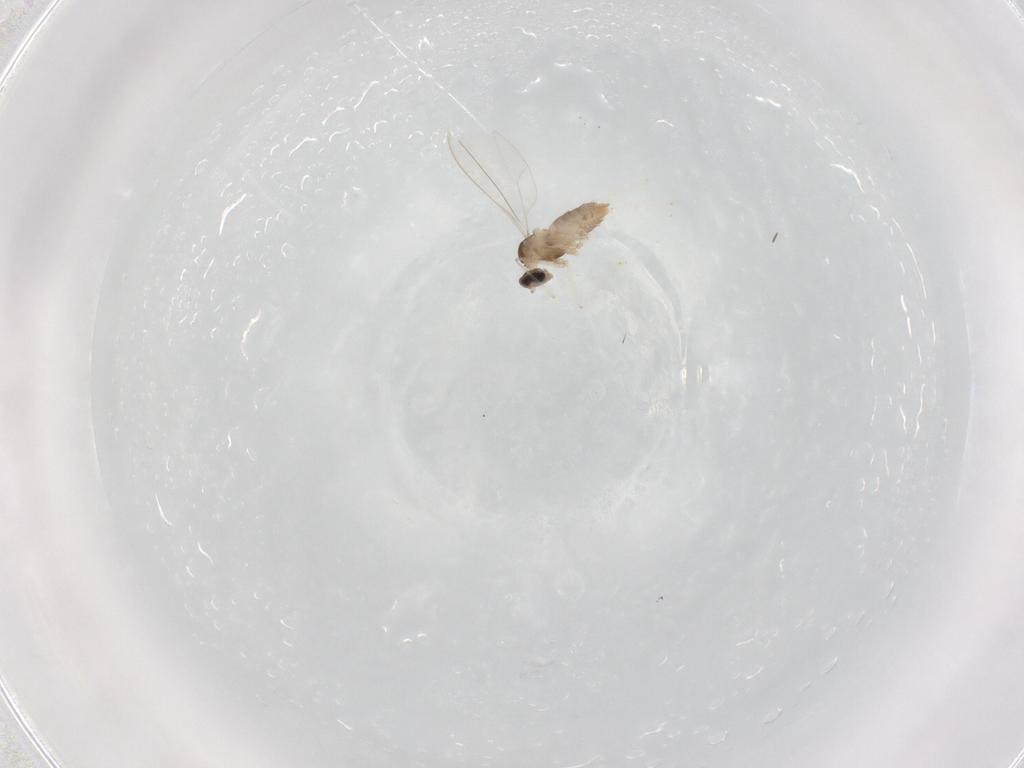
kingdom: Animalia
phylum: Arthropoda
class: Insecta
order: Diptera
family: Cecidomyiidae
